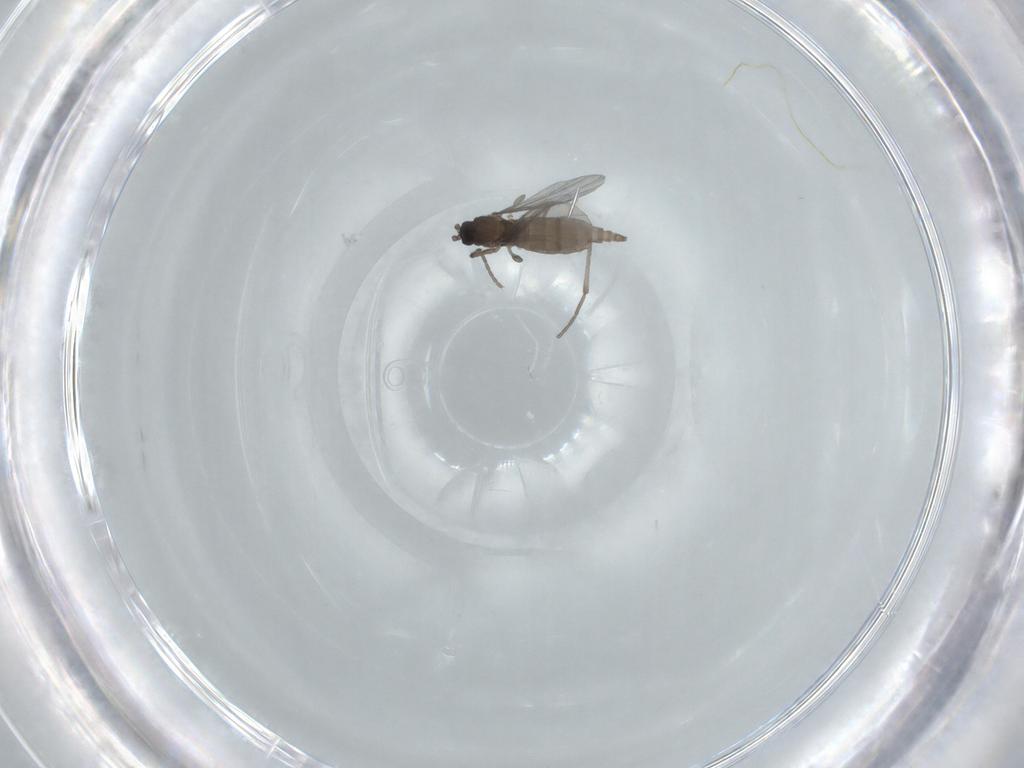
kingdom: Animalia
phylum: Arthropoda
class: Insecta
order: Diptera
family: Sciaridae
